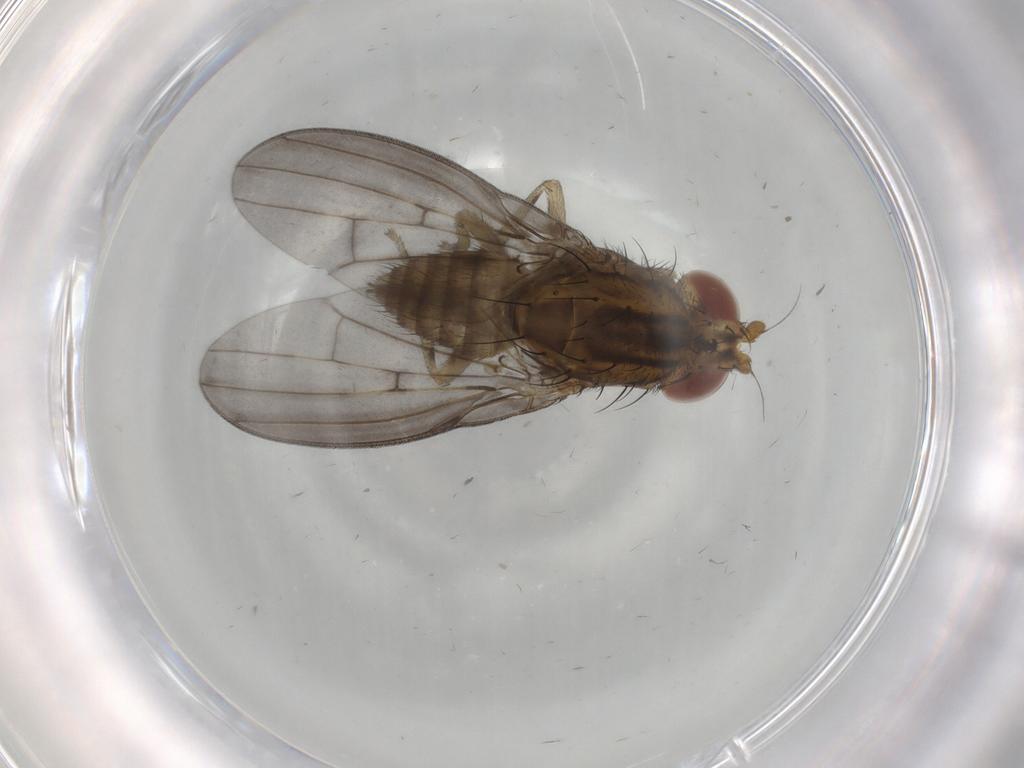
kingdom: Animalia
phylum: Arthropoda
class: Insecta
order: Diptera
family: Lauxaniidae
